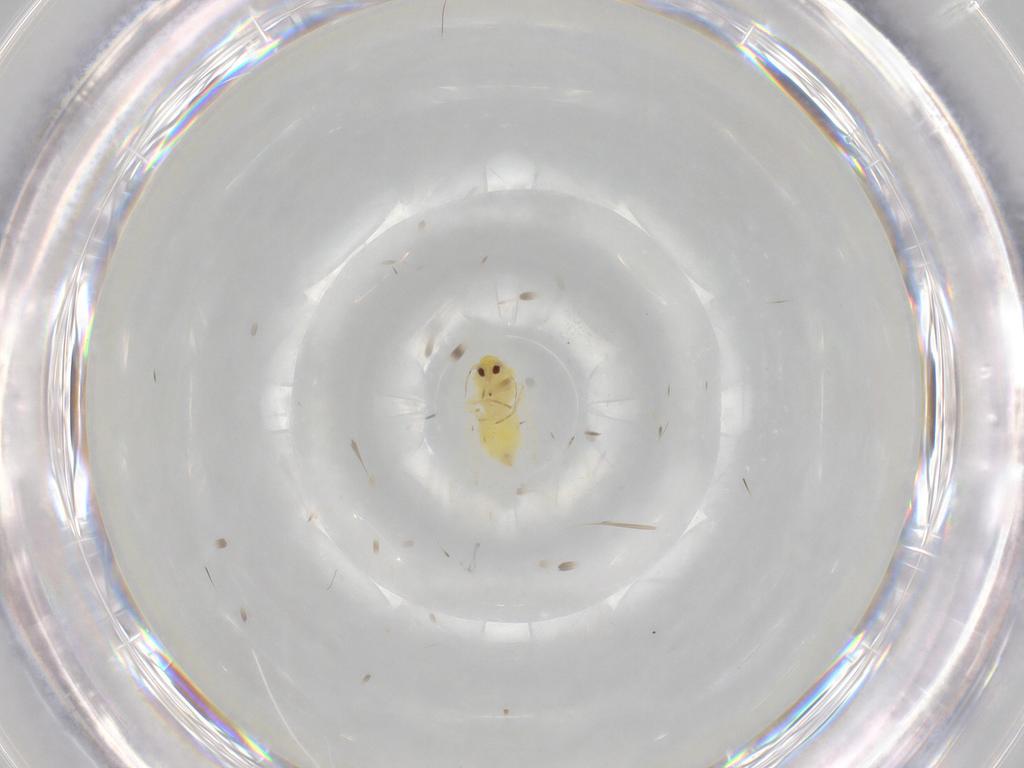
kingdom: Animalia
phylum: Arthropoda
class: Insecta
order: Hemiptera
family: Aleyrodidae
